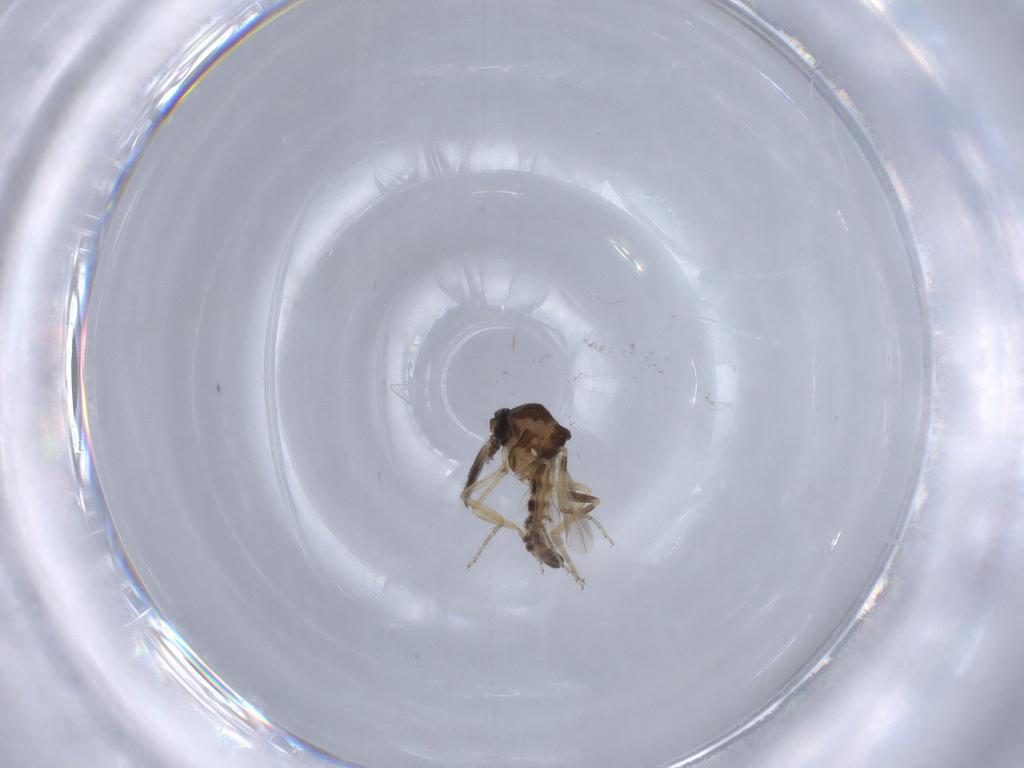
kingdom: Animalia
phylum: Arthropoda
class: Insecta
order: Diptera
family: Ceratopogonidae
